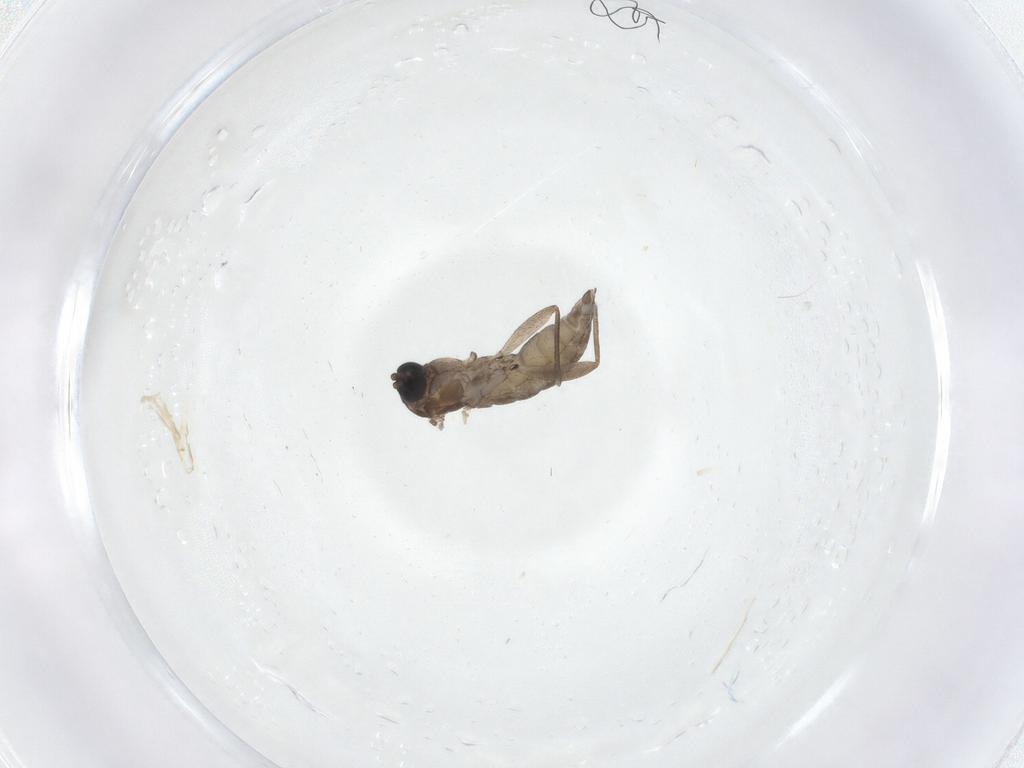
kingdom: Animalia
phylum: Arthropoda
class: Insecta
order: Diptera
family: Sciaridae
